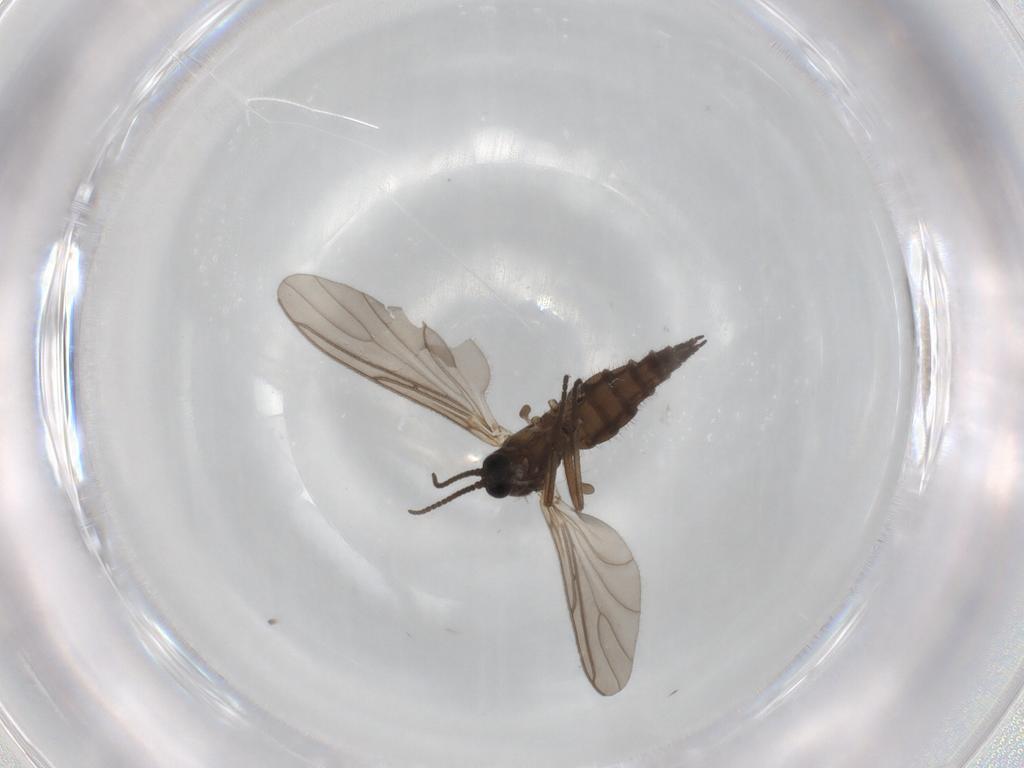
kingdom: Animalia
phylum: Arthropoda
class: Insecta
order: Diptera
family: Sciaridae
